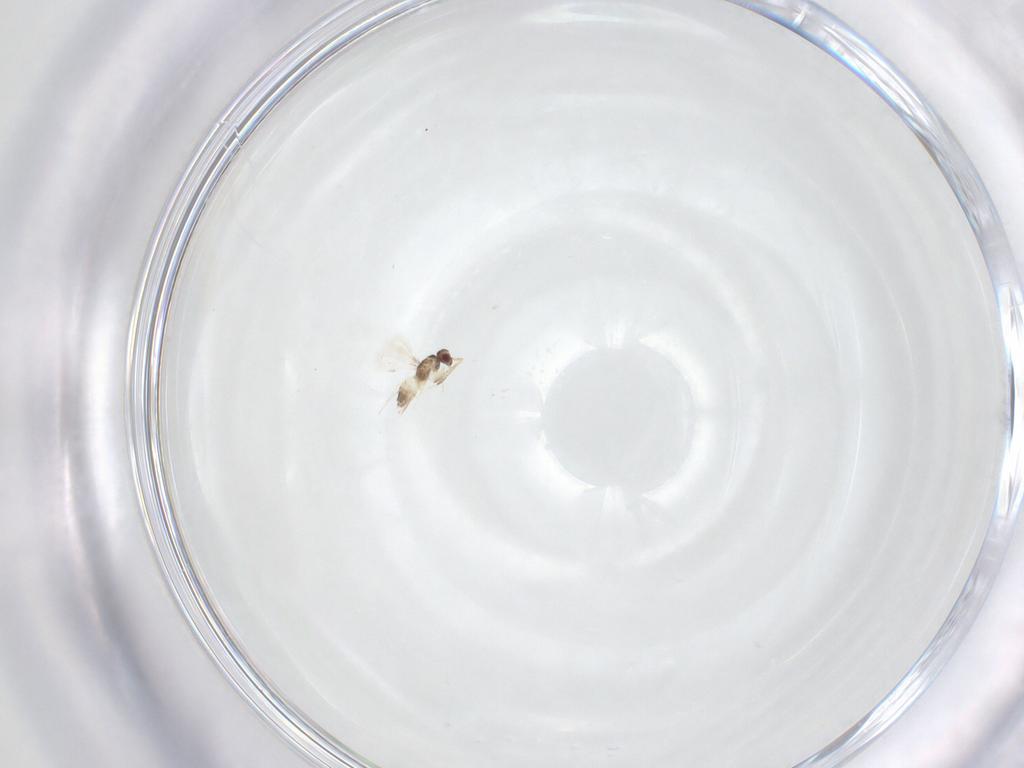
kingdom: Animalia
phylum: Arthropoda
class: Insecta
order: Hymenoptera
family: Mymaridae
